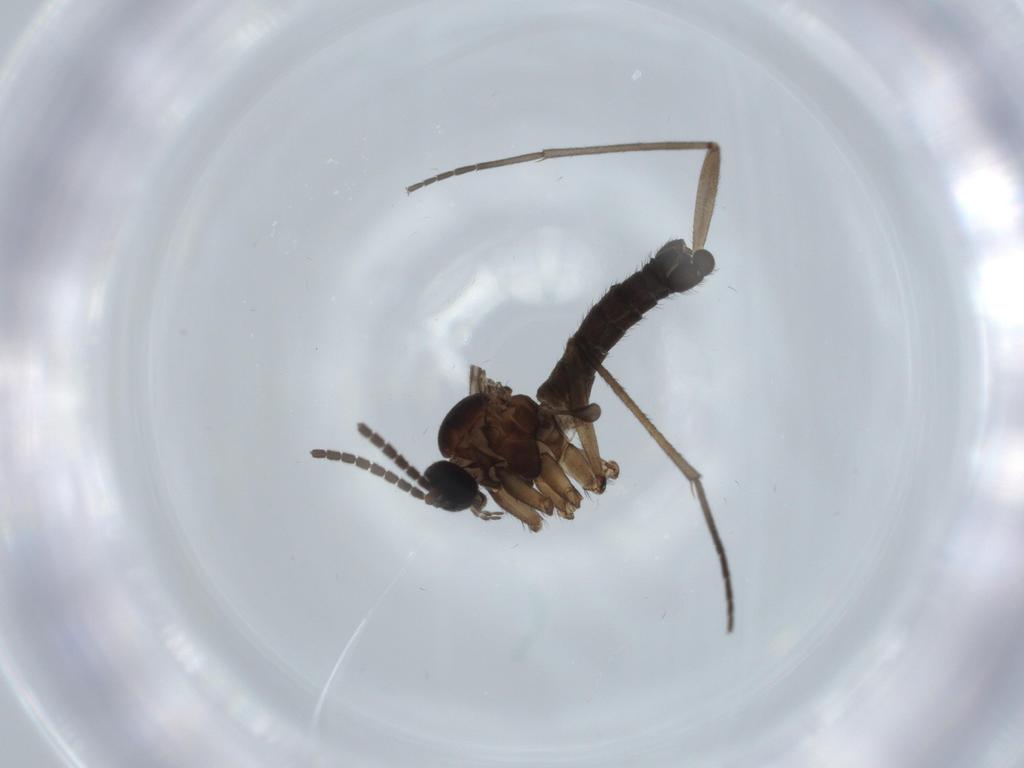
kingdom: Animalia
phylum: Arthropoda
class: Insecta
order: Diptera
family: Sciaridae
